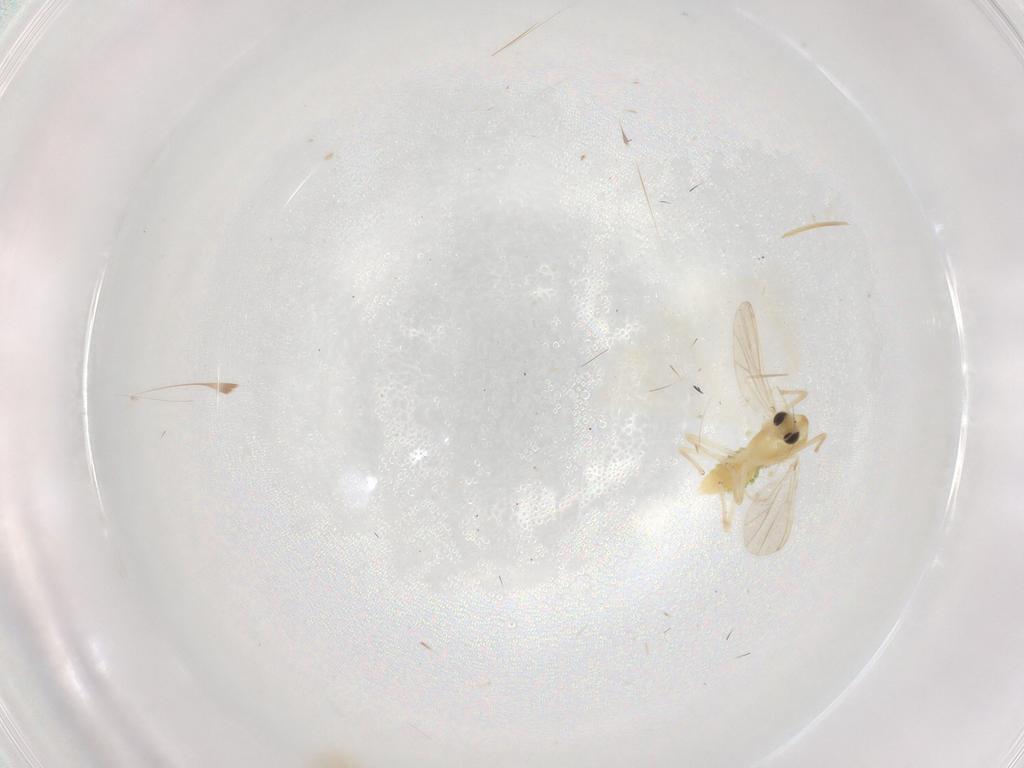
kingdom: Animalia
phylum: Arthropoda
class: Insecta
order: Diptera
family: Chironomidae
